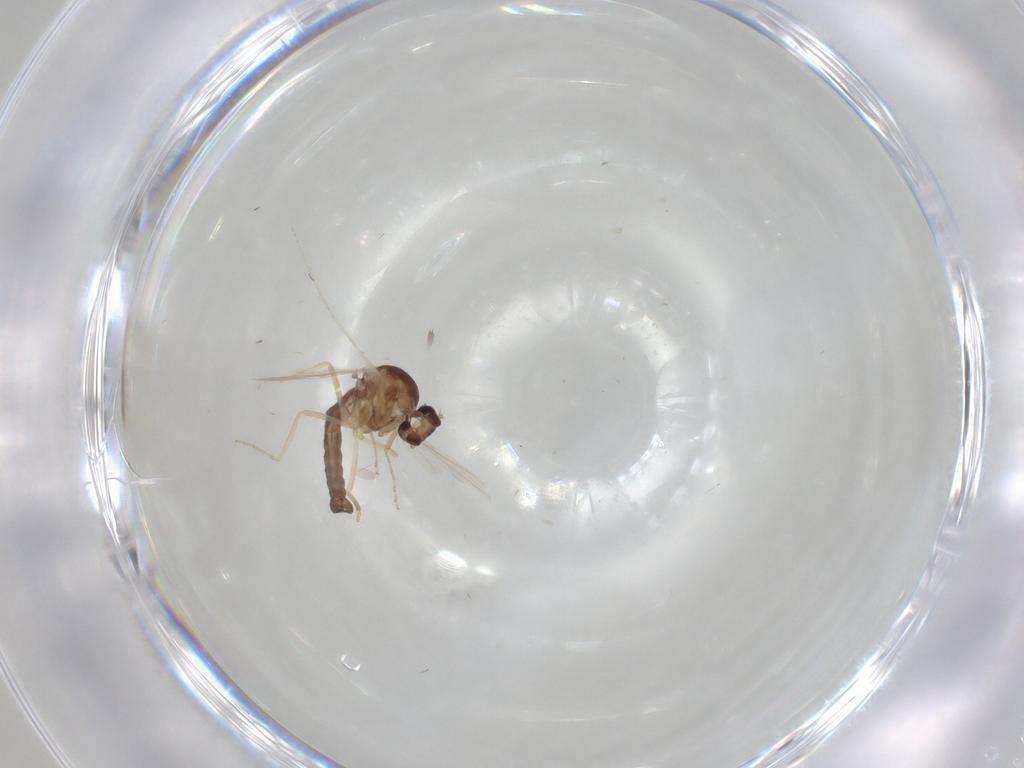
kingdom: Animalia
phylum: Arthropoda
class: Insecta
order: Diptera
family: Ceratopogonidae
